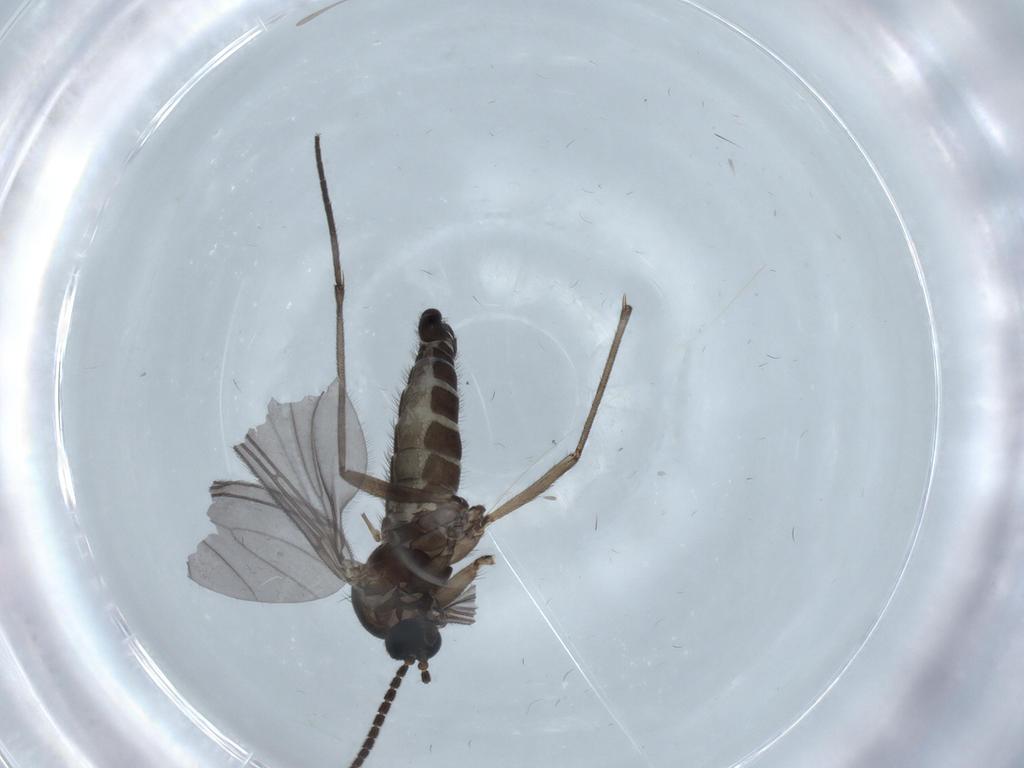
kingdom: Animalia
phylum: Arthropoda
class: Insecta
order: Diptera
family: Sciaridae
